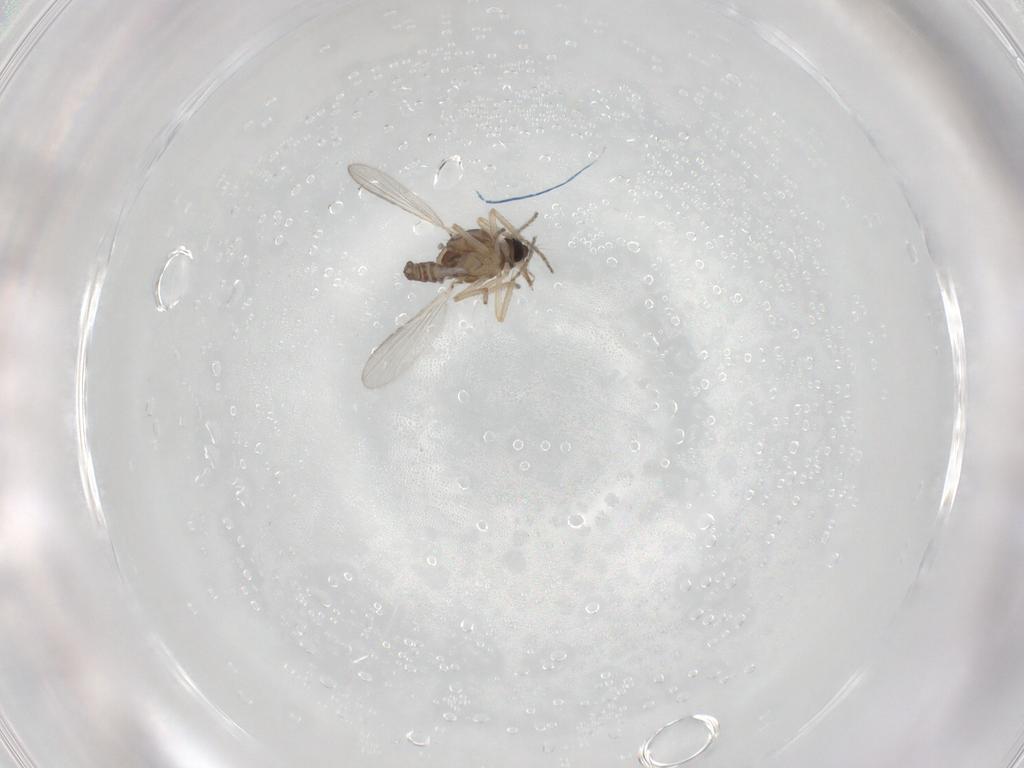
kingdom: Animalia
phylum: Arthropoda
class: Insecta
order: Diptera
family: Ceratopogonidae
